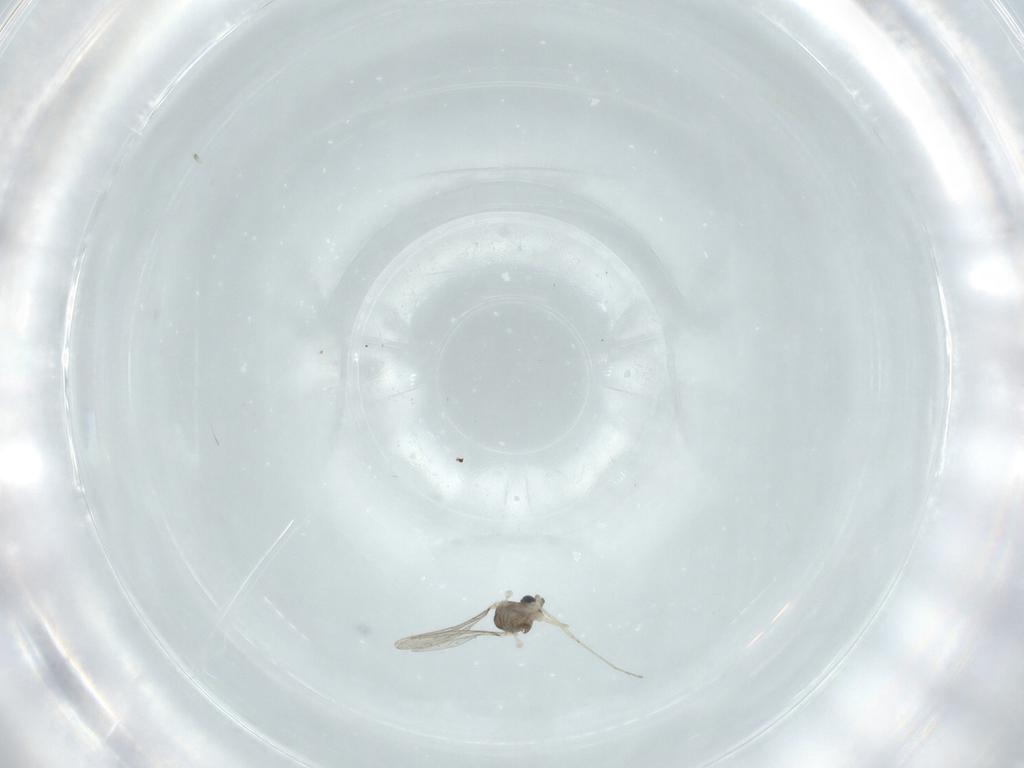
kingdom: Animalia
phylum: Arthropoda
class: Insecta
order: Diptera
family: Cecidomyiidae
